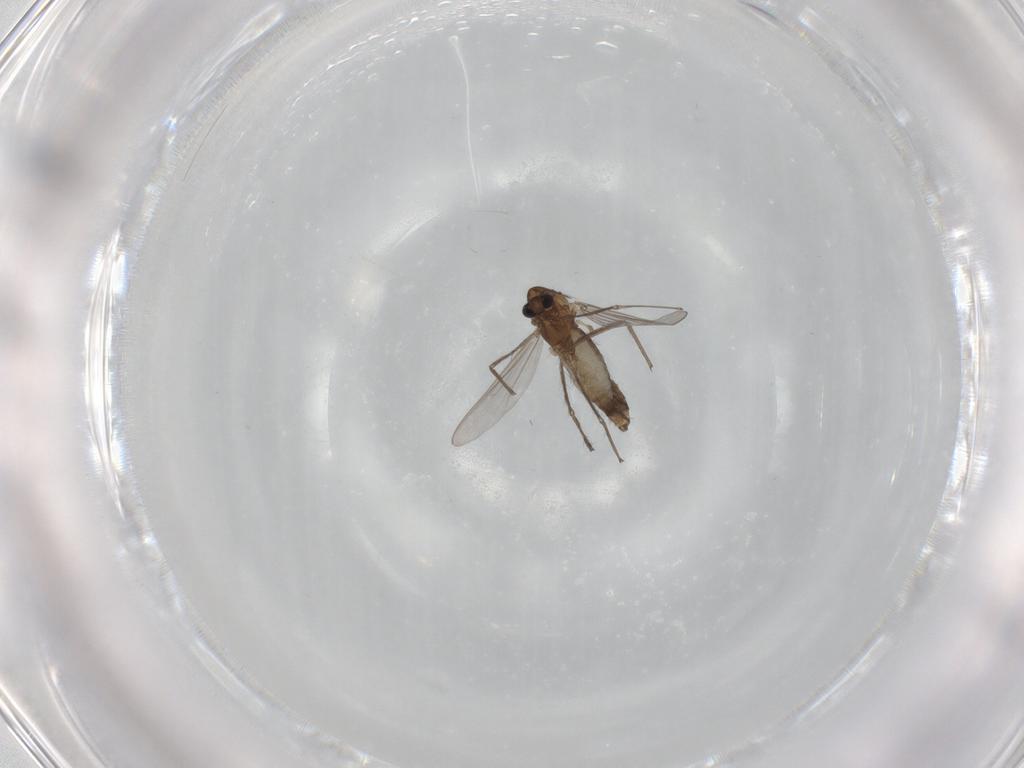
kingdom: Animalia
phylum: Arthropoda
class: Insecta
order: Diptera
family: Chironomidae
